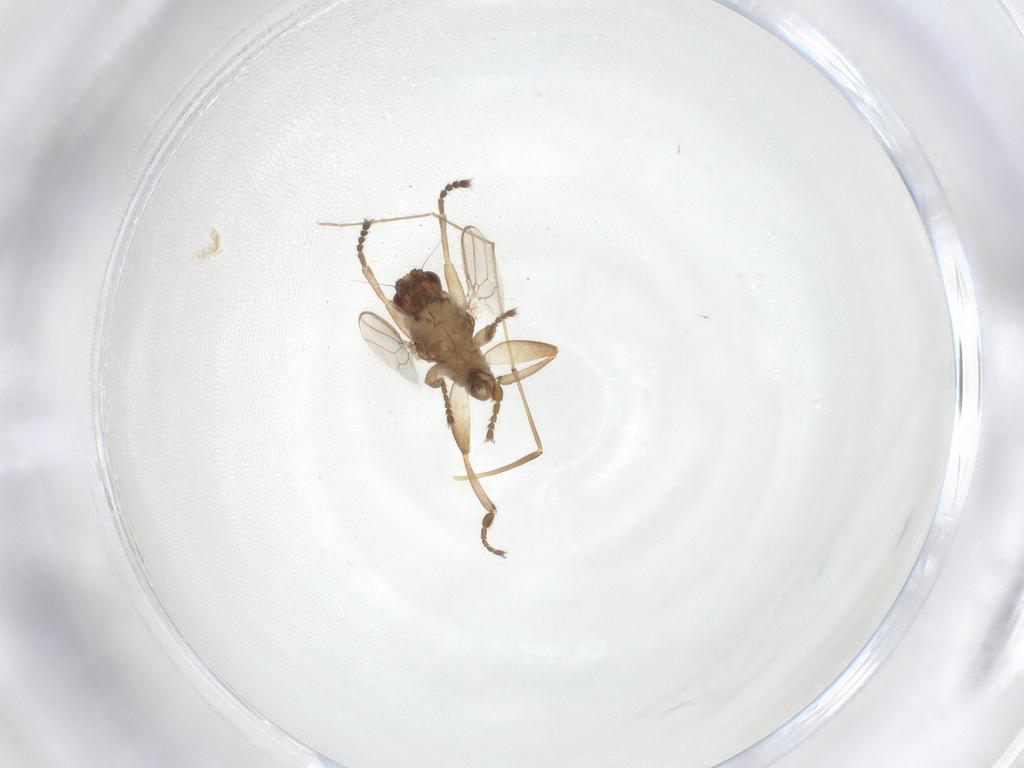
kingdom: Animalia
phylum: Arthropoda
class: Insecta
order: Diptera
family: Sphaeroceridae
